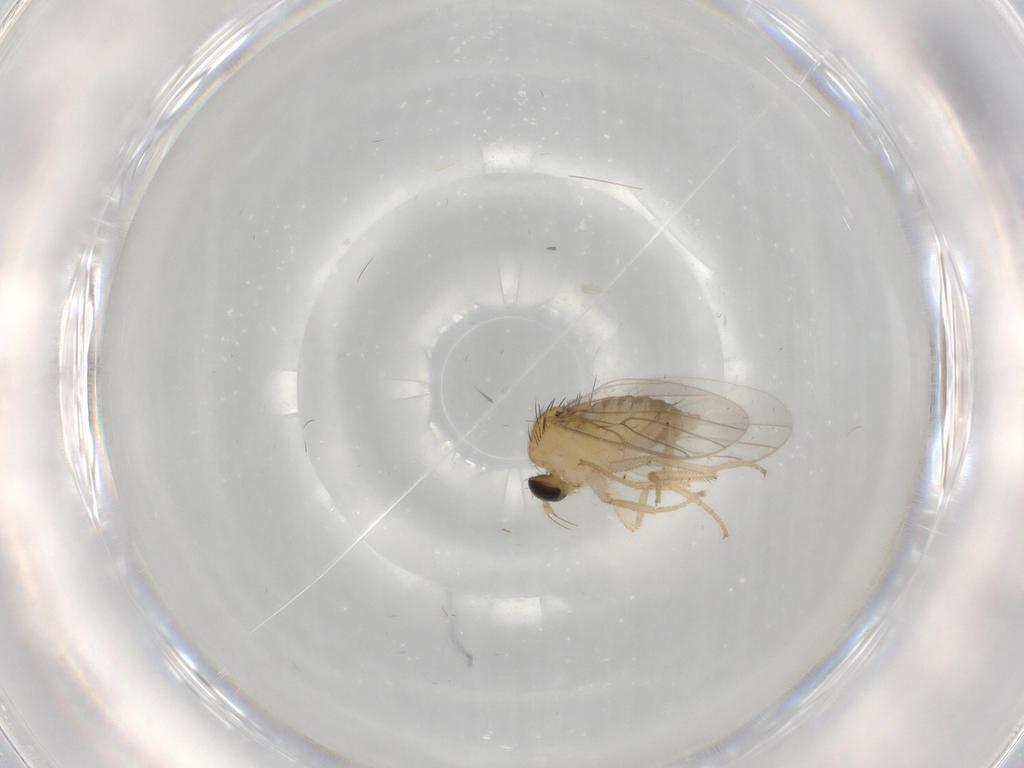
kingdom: Animalia
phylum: Arthropoda
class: Insecta
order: Diptera
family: Hybotidae
